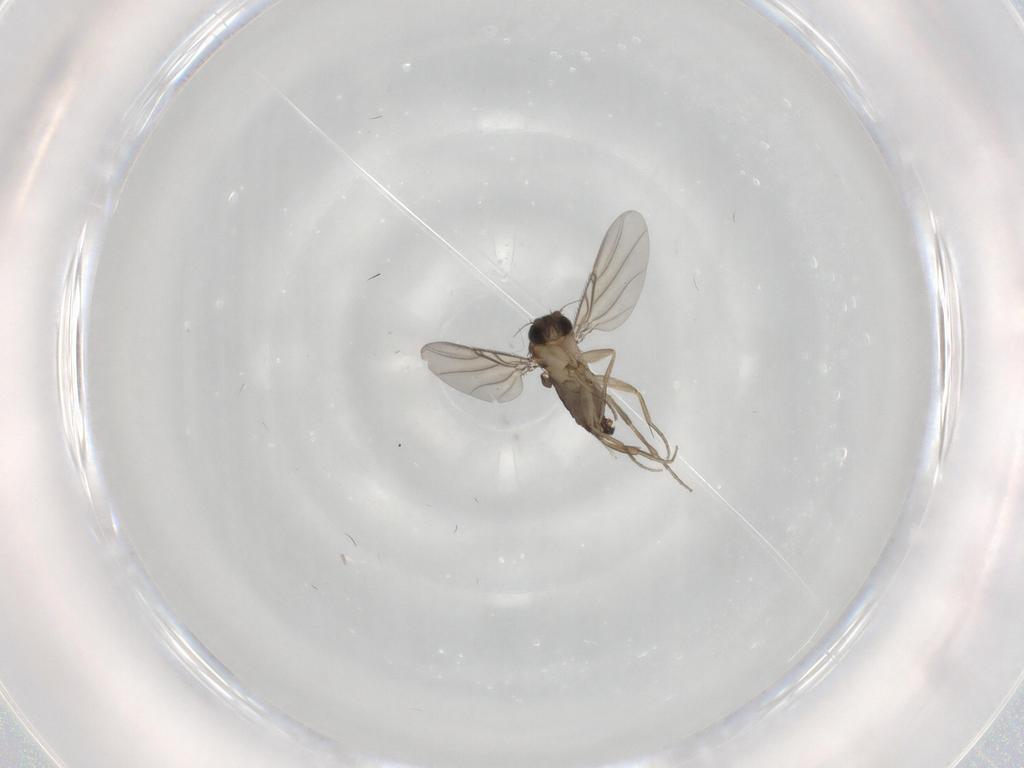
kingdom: Animalia
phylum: Arthropoda
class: Insecta
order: Diptera
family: Phoridae
